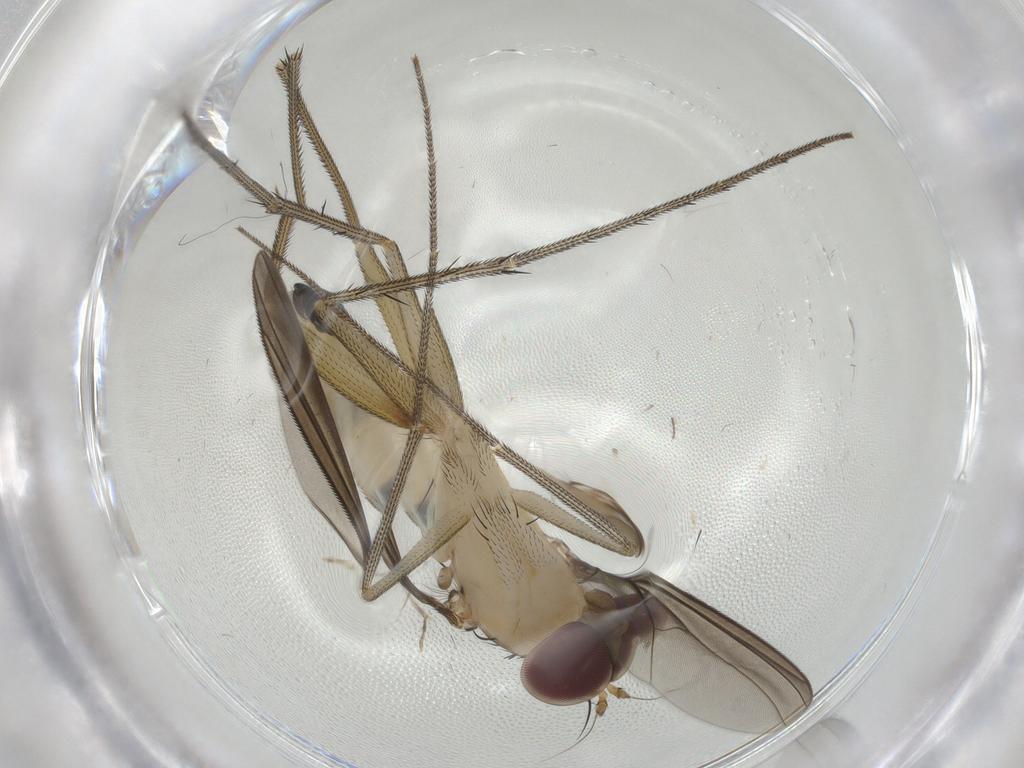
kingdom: Animalia
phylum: Arthropoda
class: Insecta
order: Diptera
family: Dolichopodidae
